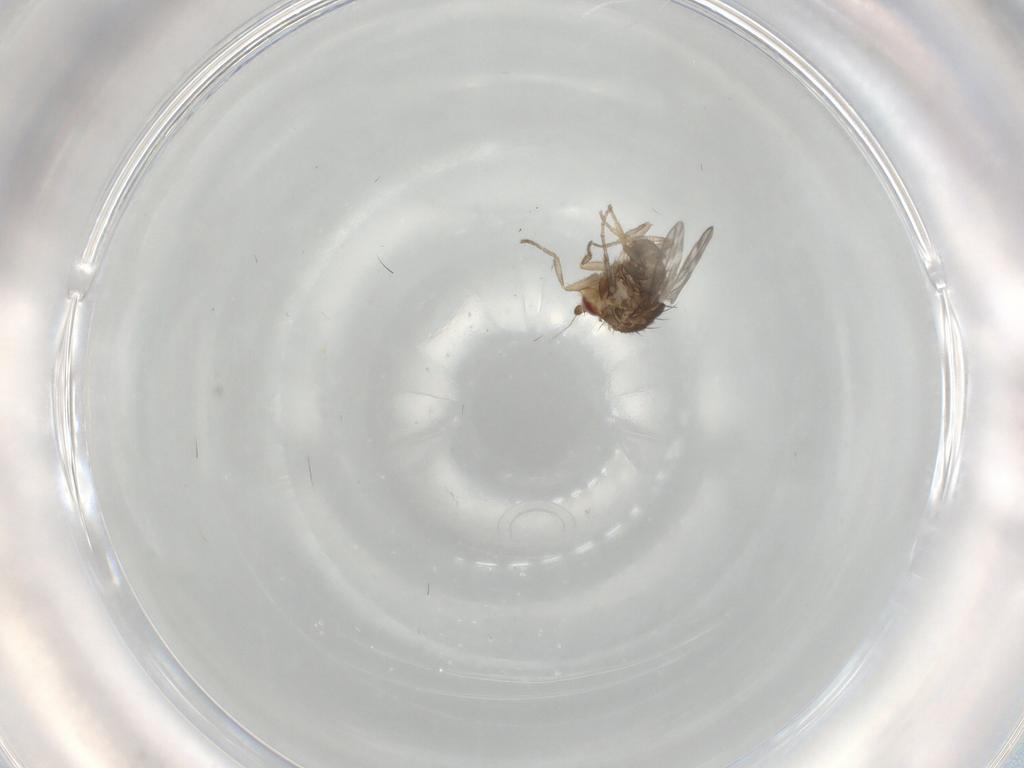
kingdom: Animalia
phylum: Arthropoda
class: Insecta
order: Diptera
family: Sphaeroceridae
